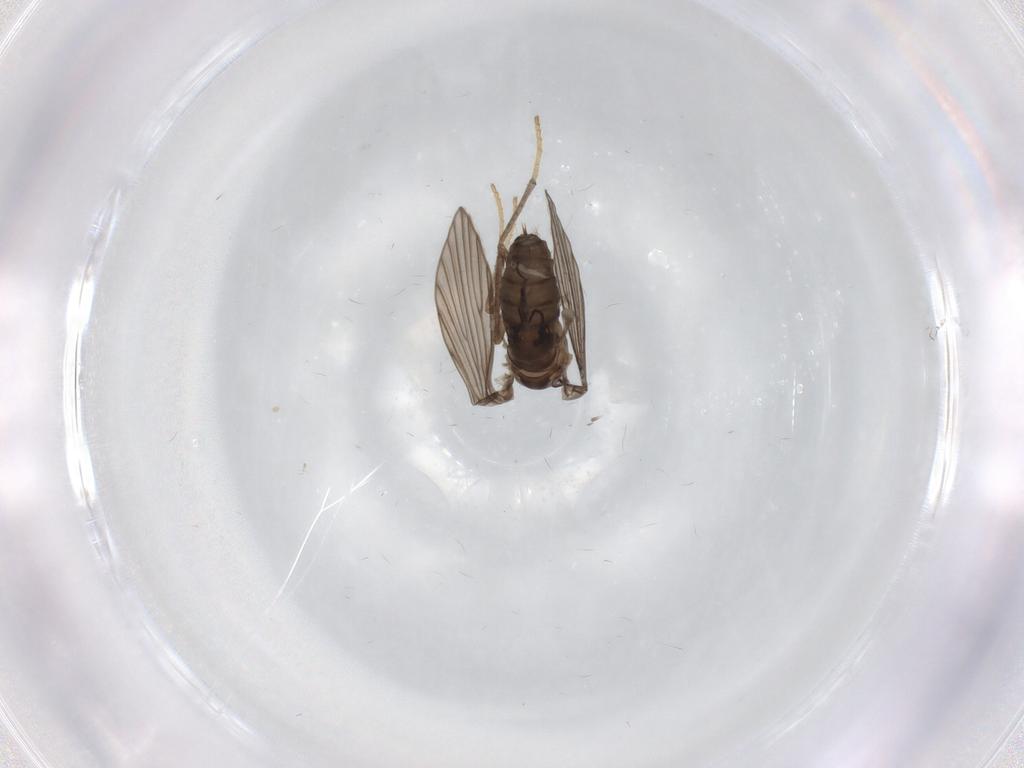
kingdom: Animalia
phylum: Arthropoda
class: Insecta
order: Diptera
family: Psychodidae
